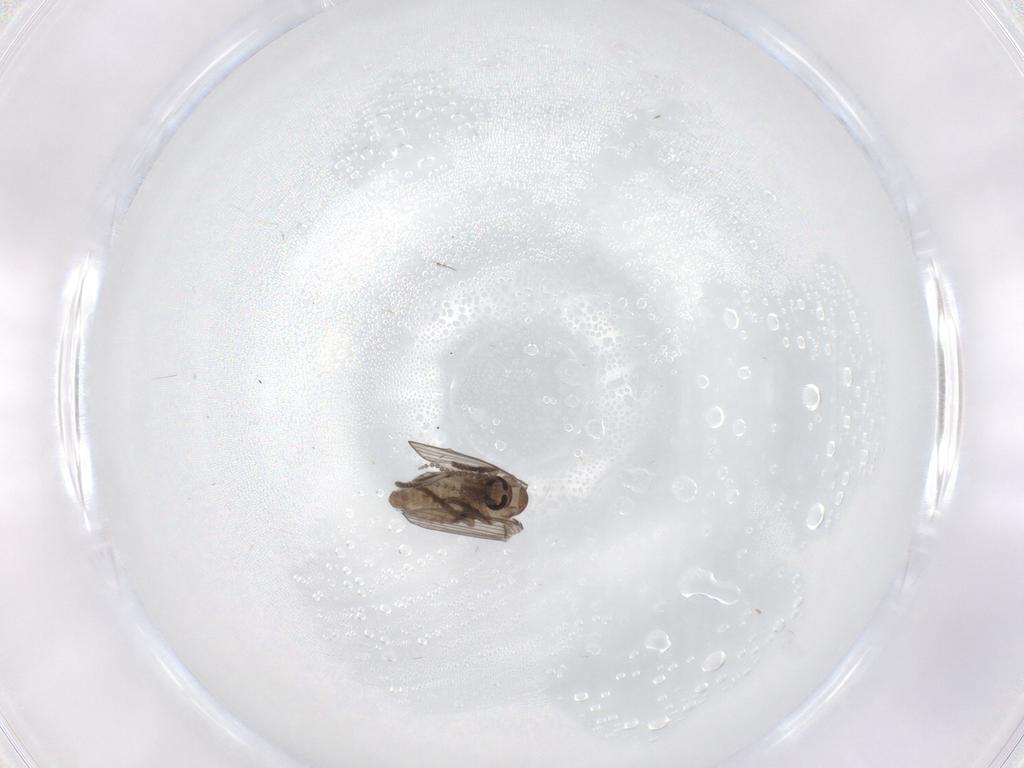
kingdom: Animalia
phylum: Arthropoda
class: Insecta
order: Diptera
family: Psychodidae
